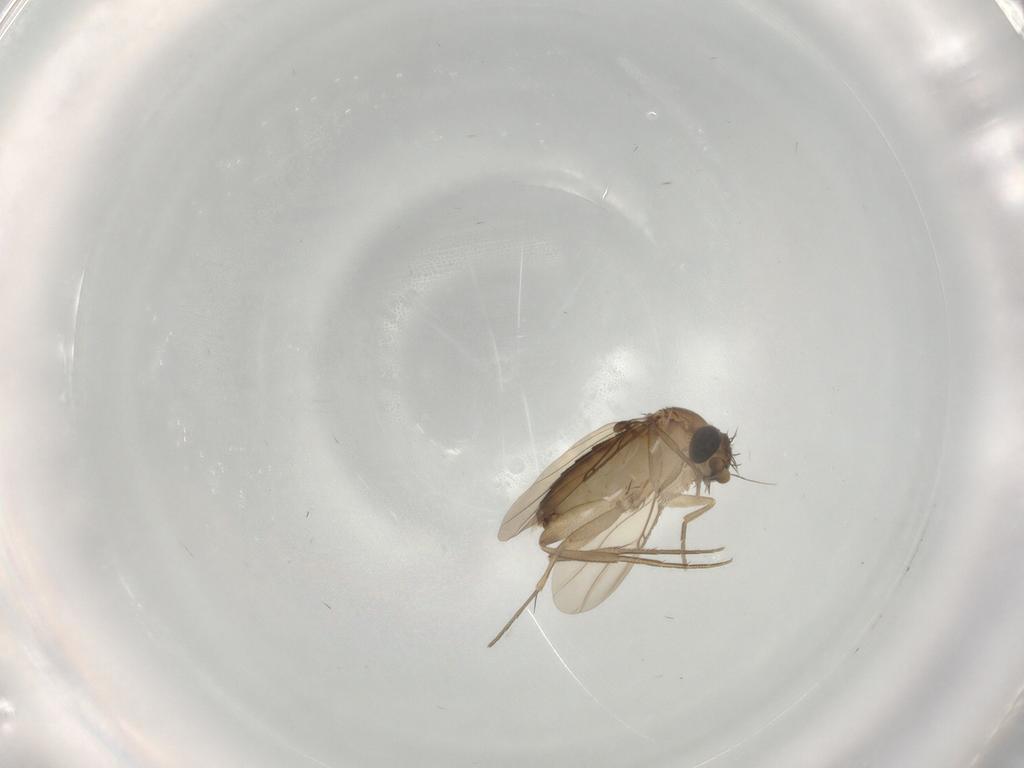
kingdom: Animalia
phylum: Arthropoda
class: Insecta
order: Diptera
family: Phoridae
